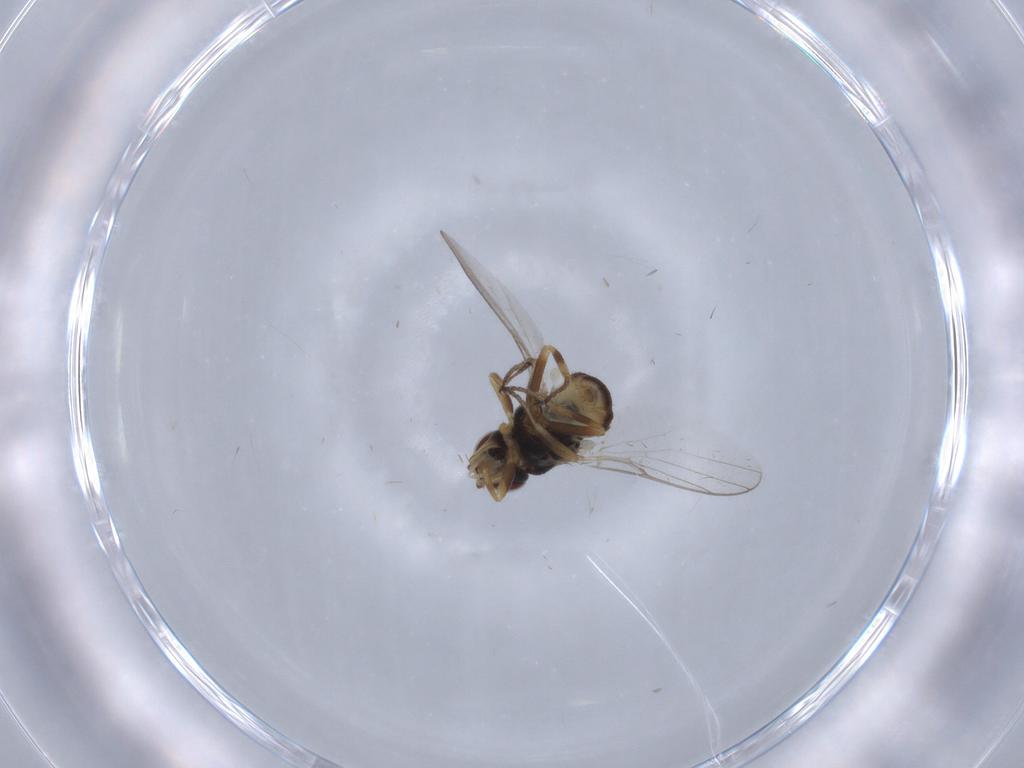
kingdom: Animalia
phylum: Arthropoda
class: Insecta
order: Diptera
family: Chloropidae
